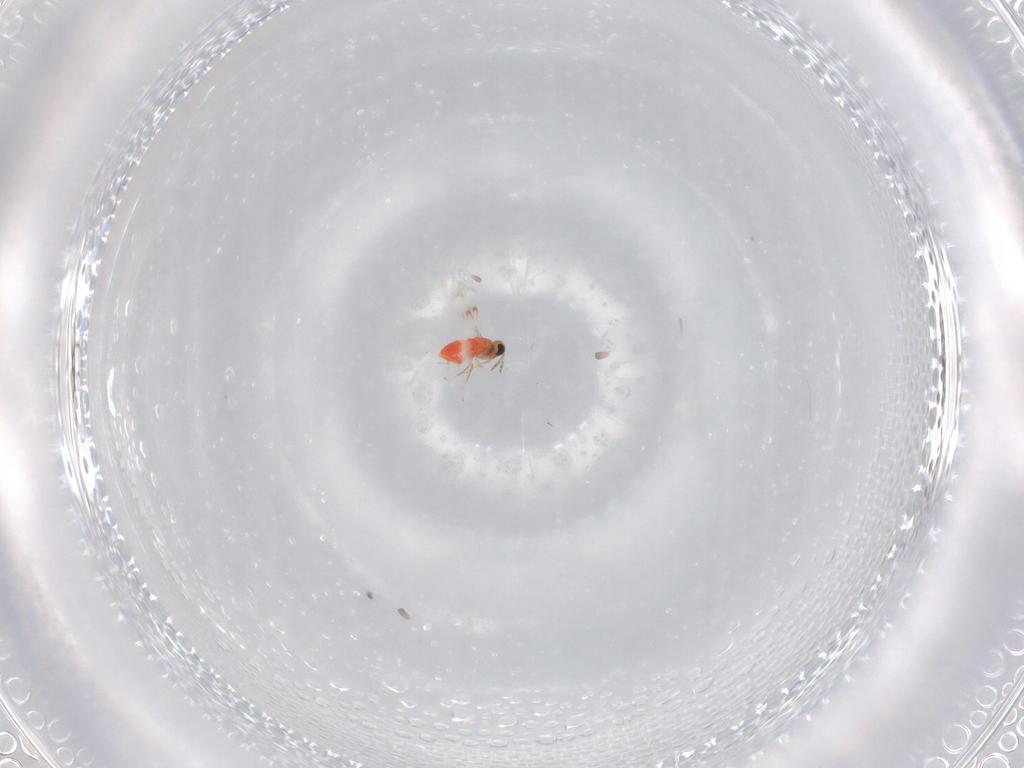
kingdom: Animalia
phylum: Arthropoda
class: Insecta
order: Hymenoptera
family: Trichogrammatidae
